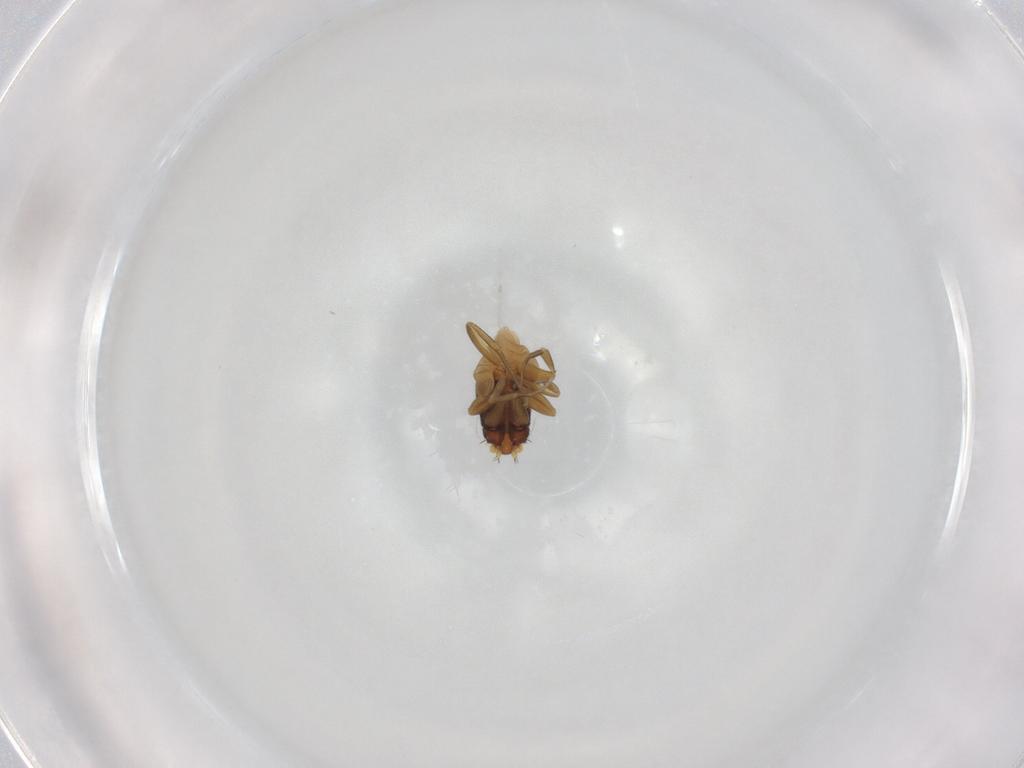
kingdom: Animalia
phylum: Arthropoda
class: Insecta
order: Diptera
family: Phoridae
